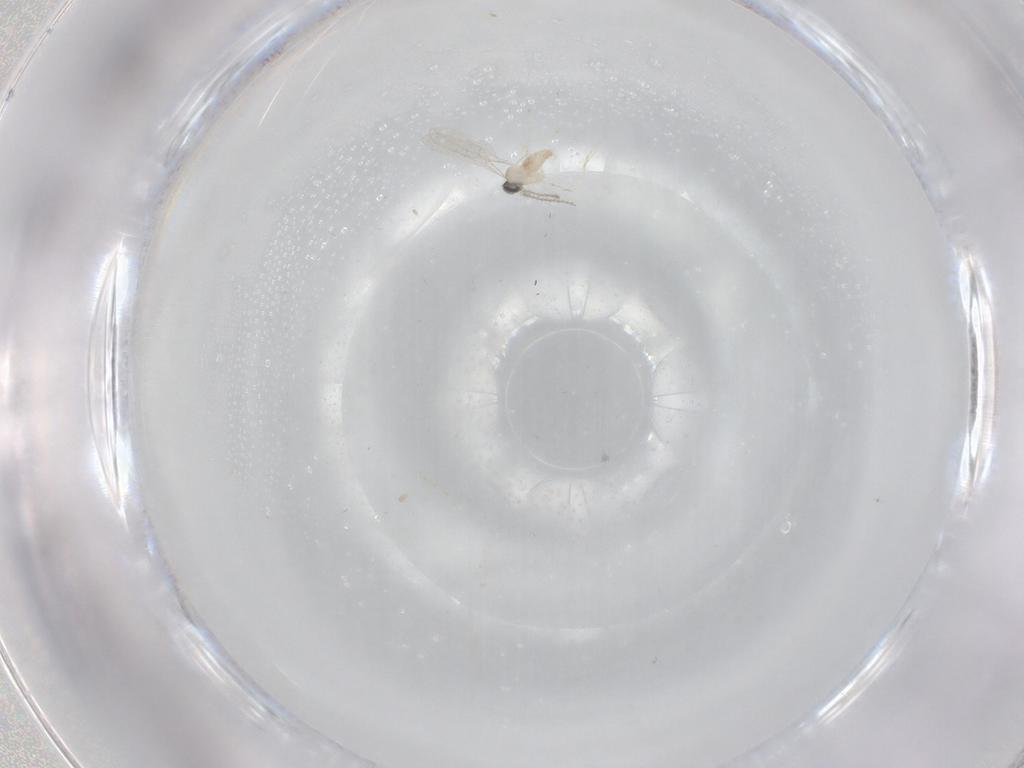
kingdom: Animalia
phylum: Arthropoda
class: Insecta
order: Diptera
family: Cecidomyiidae
